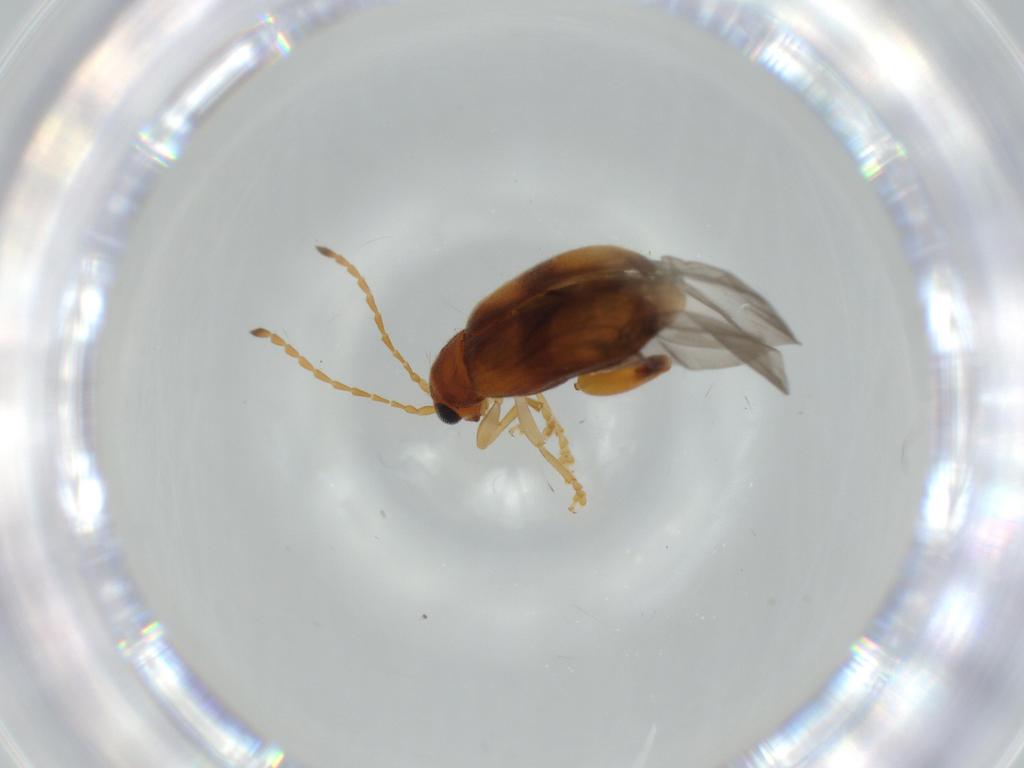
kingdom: Animalia
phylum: Arthropoda
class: Insecta
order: Coleoptera
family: Chrysomelidae
